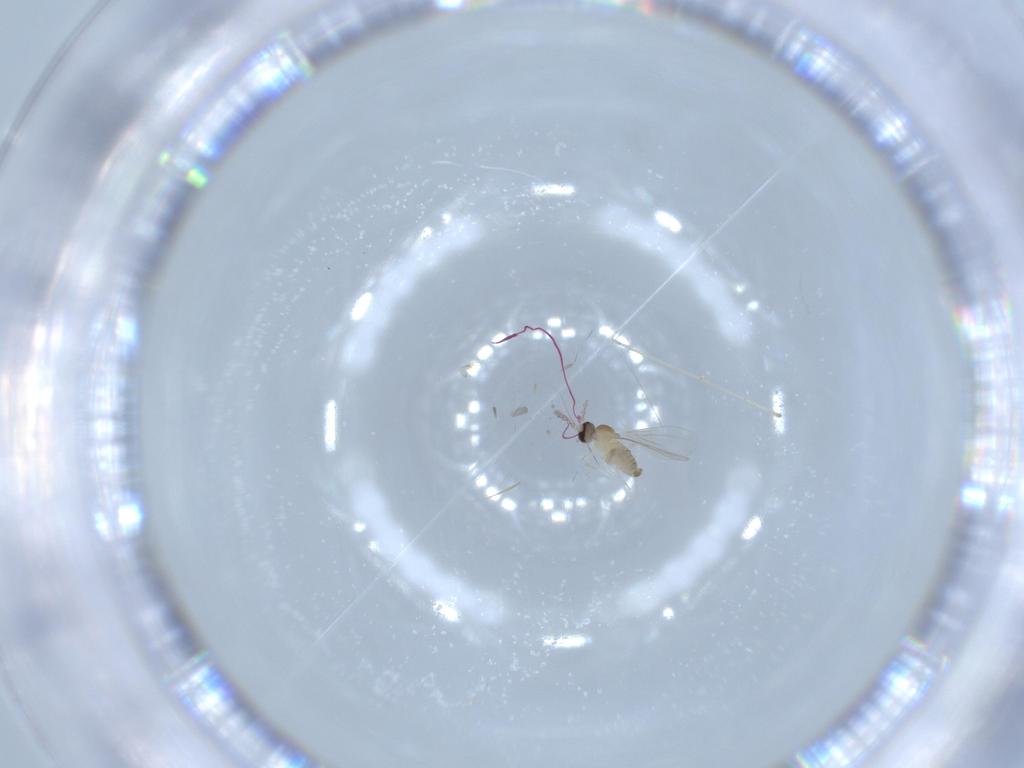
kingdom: Animalia
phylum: Arthropoda
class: Insecta
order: Diptera
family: Cecidomyiidae
